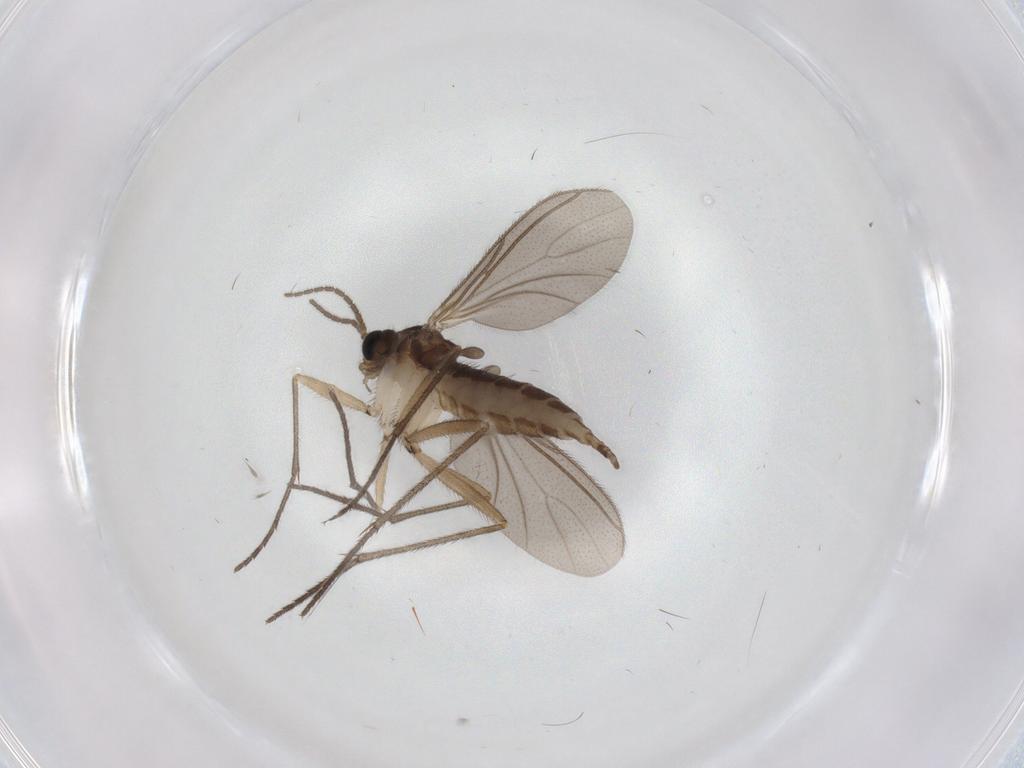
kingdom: Animalia
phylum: Arthropoda
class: Insecta
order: Diptera
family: Sciaridae
